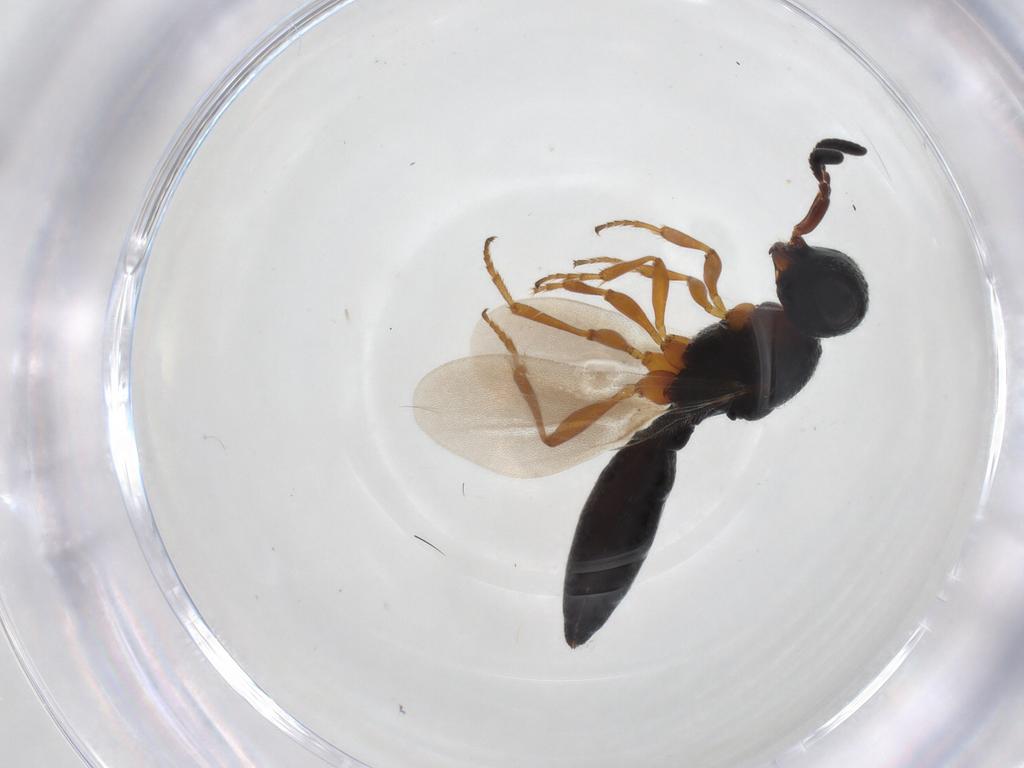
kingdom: Animalia
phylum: Arthropoda
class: Insecta
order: Hymenoptera
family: Scelionidae
